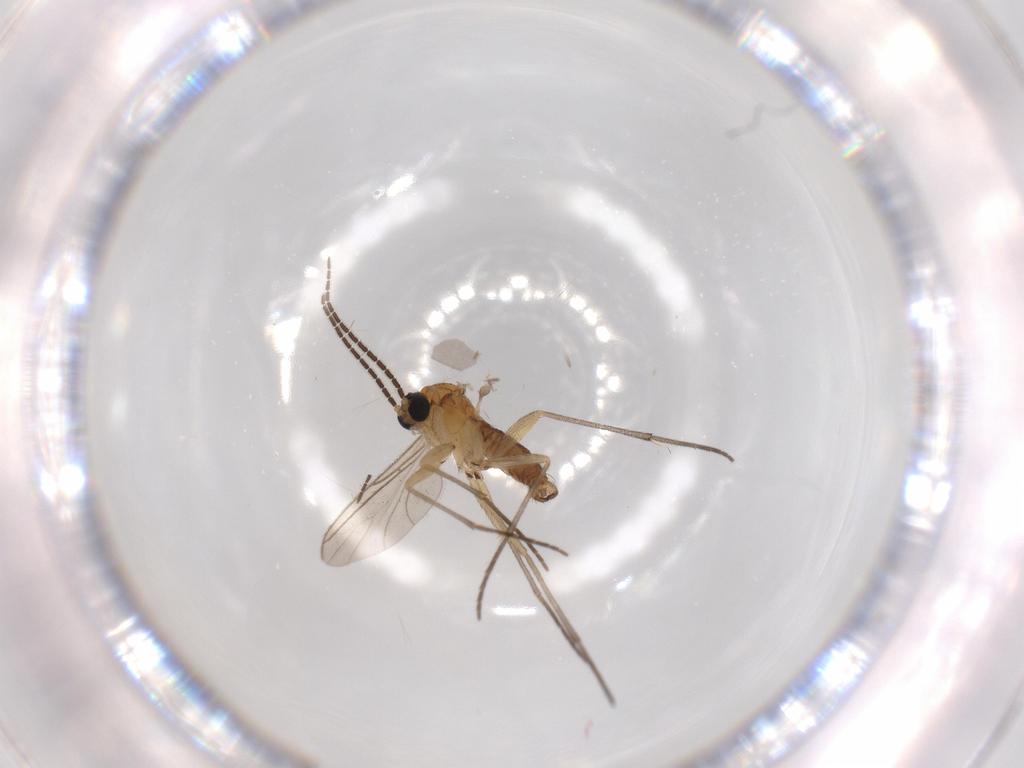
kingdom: Animalia
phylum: Arthropoda
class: Insecta
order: Diptera
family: Sciaridae
